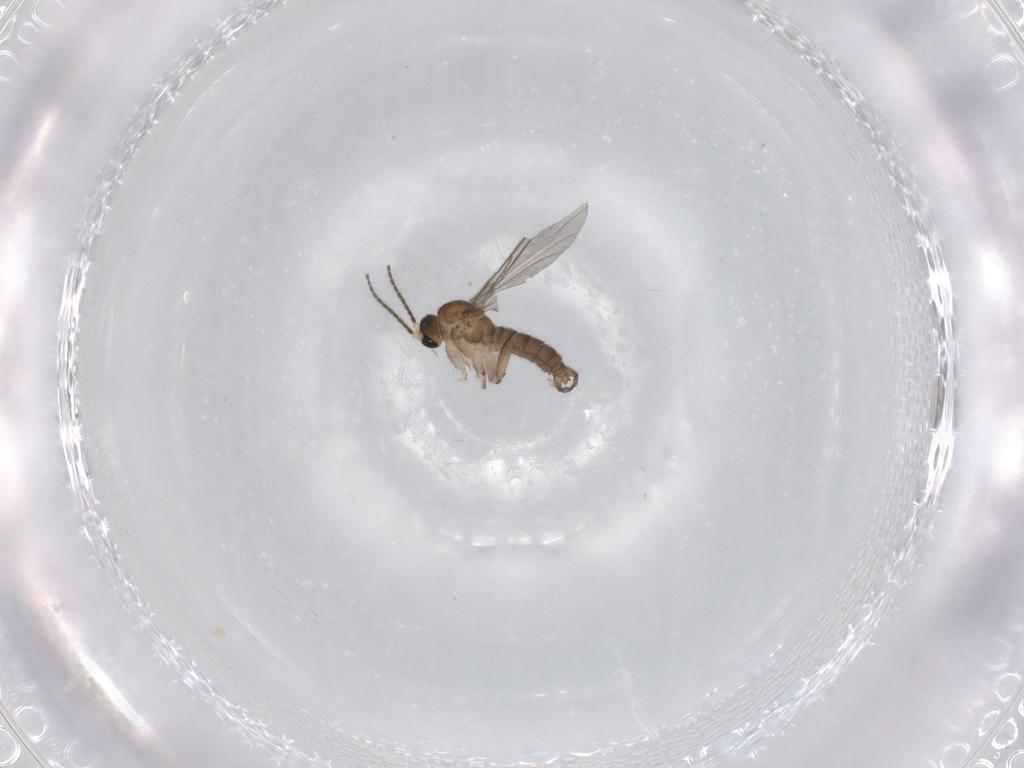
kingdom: Animalia
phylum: Arthropoda
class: Insecta
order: Diptera
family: Sciaridae
